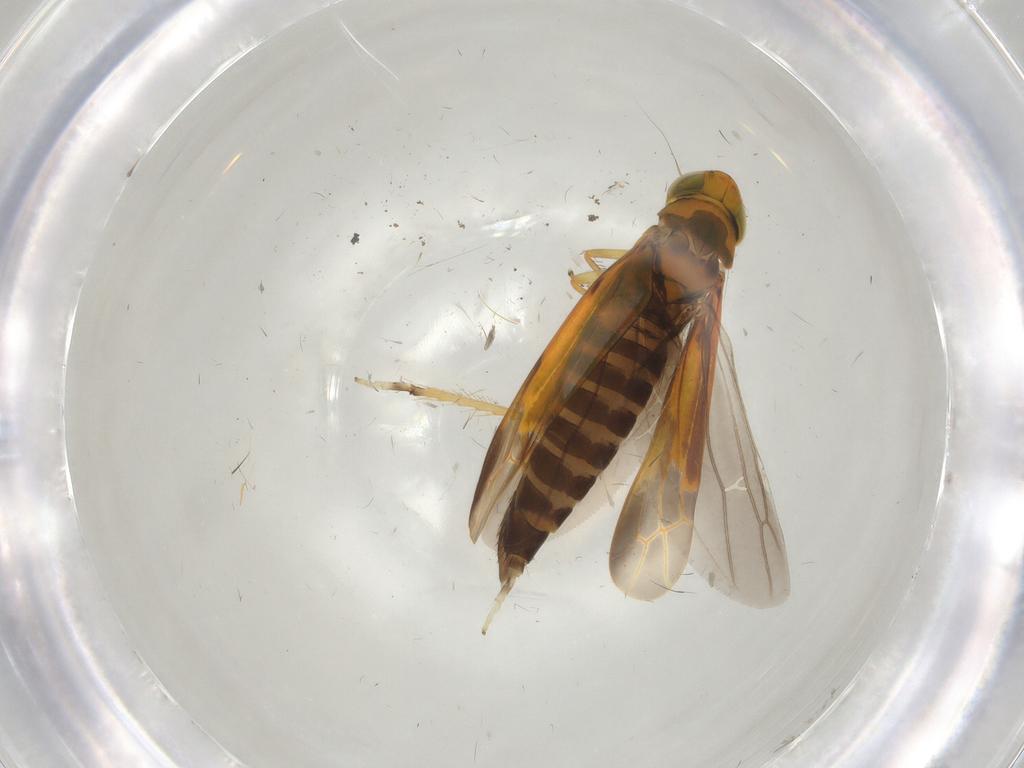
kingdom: Animalia
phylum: Arthropoda
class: Insecta
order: Hemiptera
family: Cicadellidae
